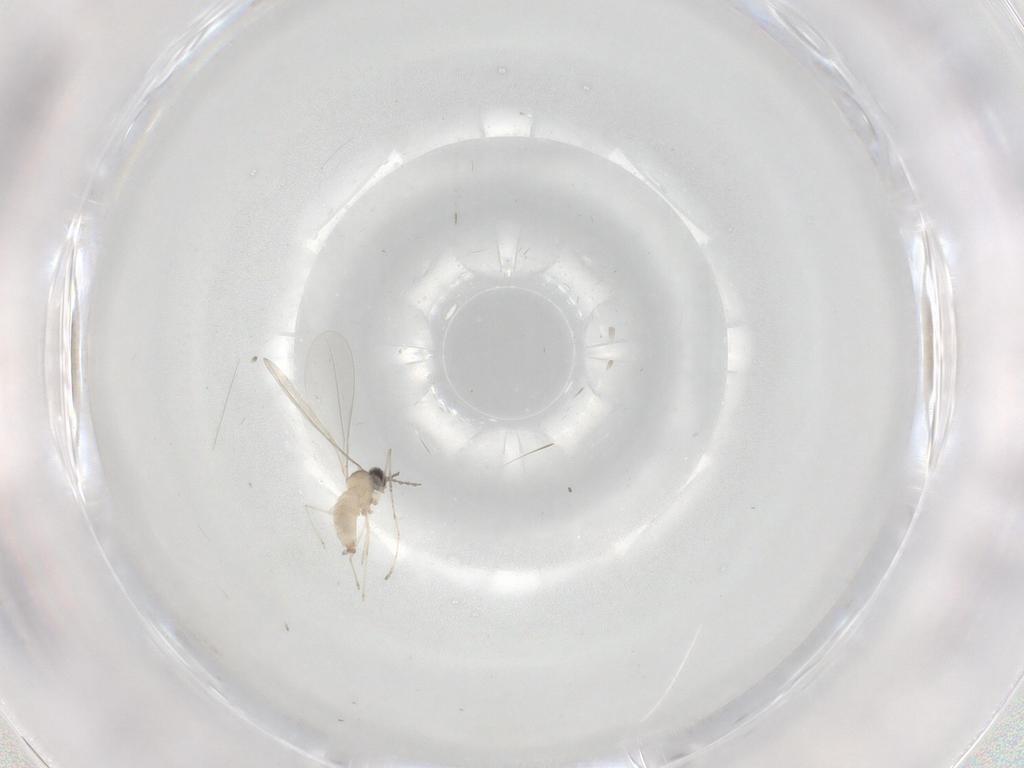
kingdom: Animalia
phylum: Arthropoda
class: Insecta
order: Diptera
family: Cecidomyiidae
